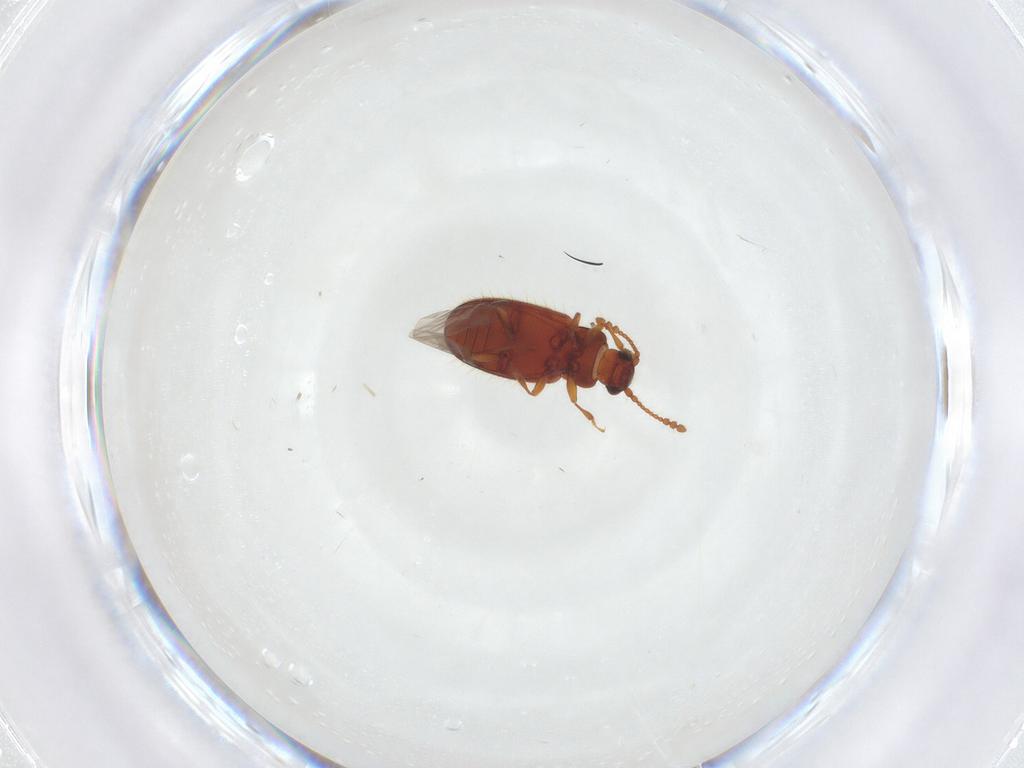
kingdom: Animalia
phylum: Arthropoda
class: Insecta
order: Coleoptera
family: Cryptophagidae
